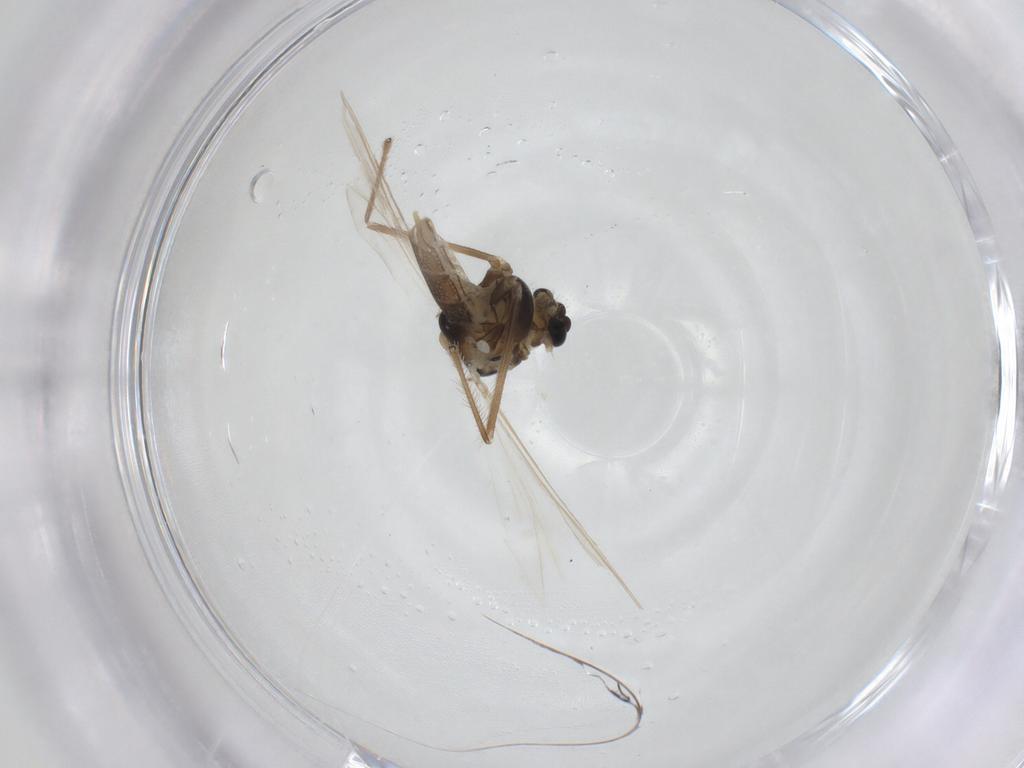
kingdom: Animalia
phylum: Arthropoda
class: Insecta
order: Diptera
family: Chironomidae
